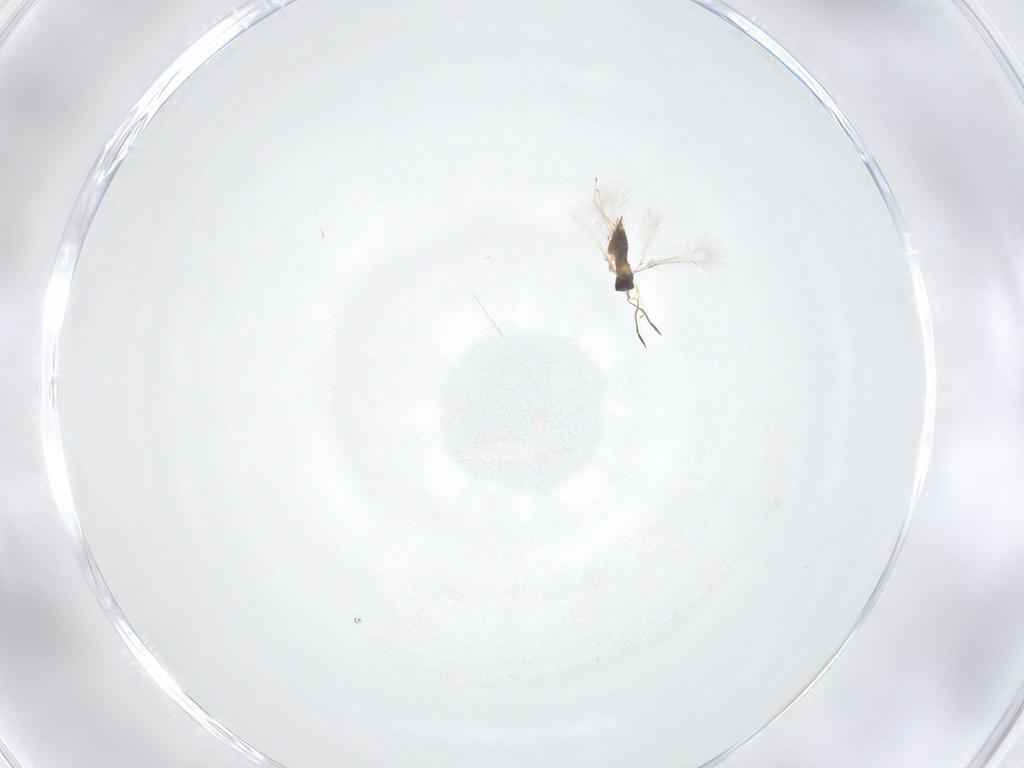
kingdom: Animalia
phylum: Arthropoda
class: Insecta
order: Hymenoptera
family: Mymaridae
